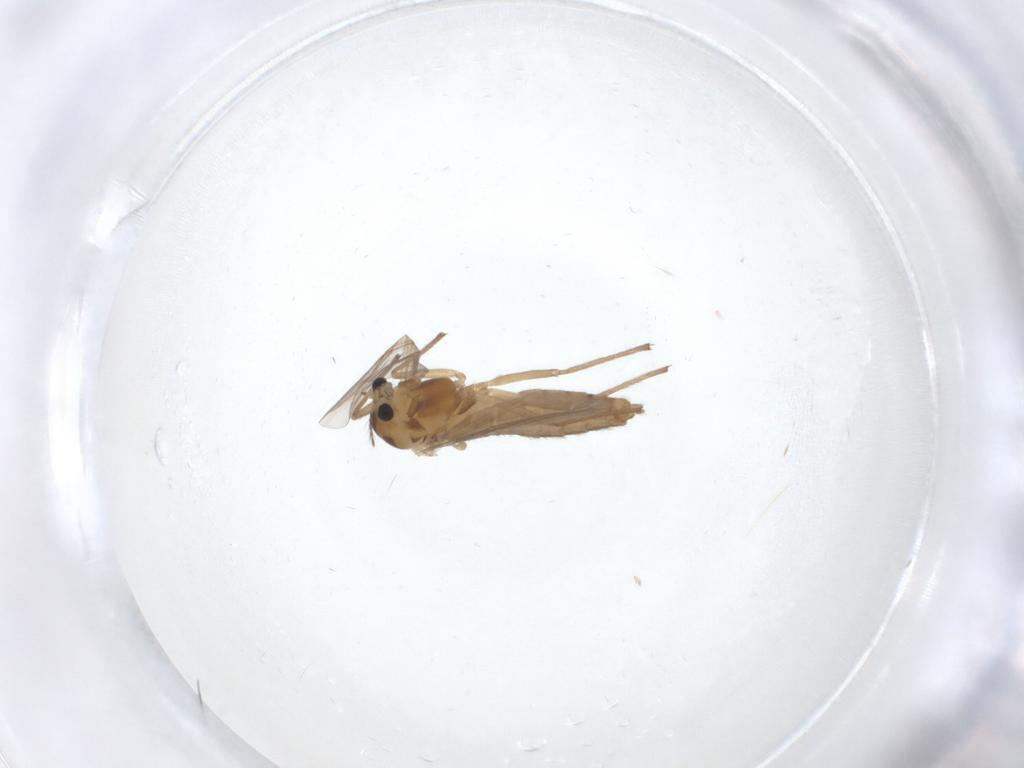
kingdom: Animalia
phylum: Arthropoda
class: Insecta
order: Diptera
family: Chironomidae
